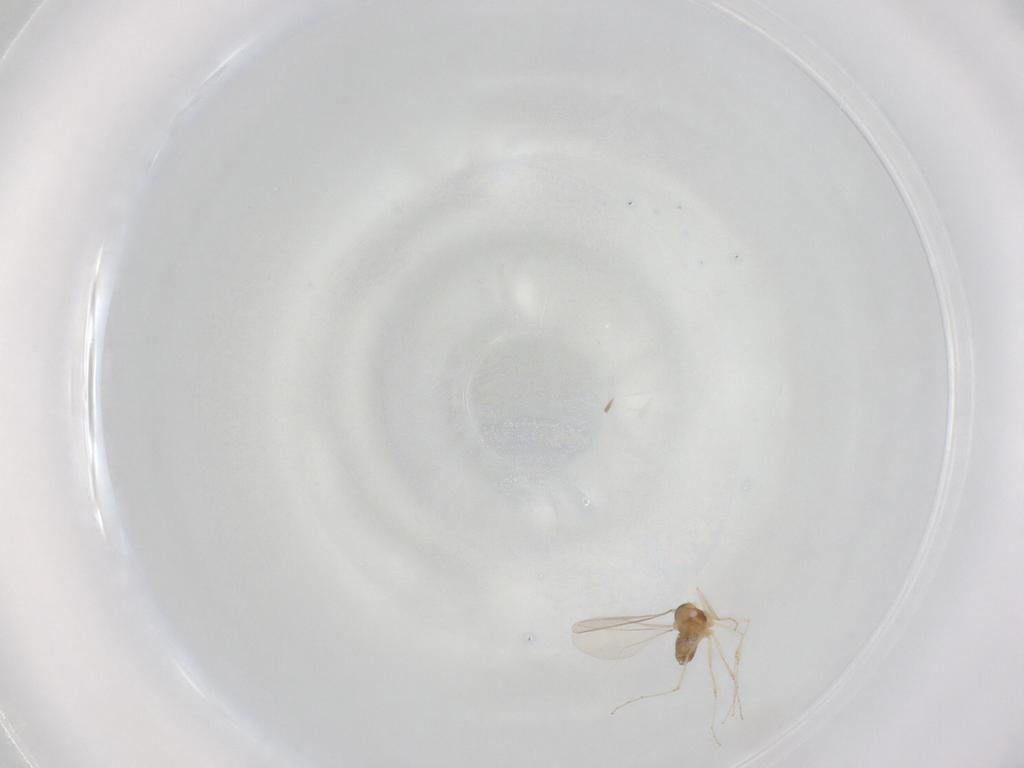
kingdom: Animalia
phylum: Arthropoda
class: Insecta
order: Diptera
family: Cecidomyiidae
